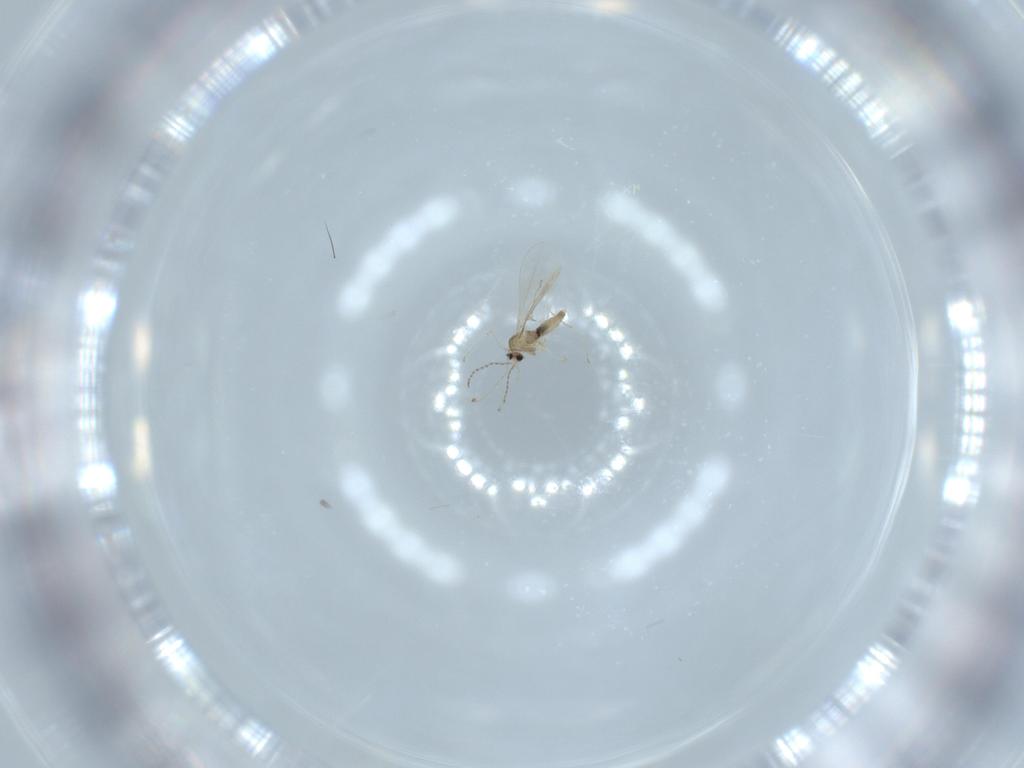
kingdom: Animalia
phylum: Arthropoda
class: Insecta
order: Diptera
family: Cecidomyiidae
